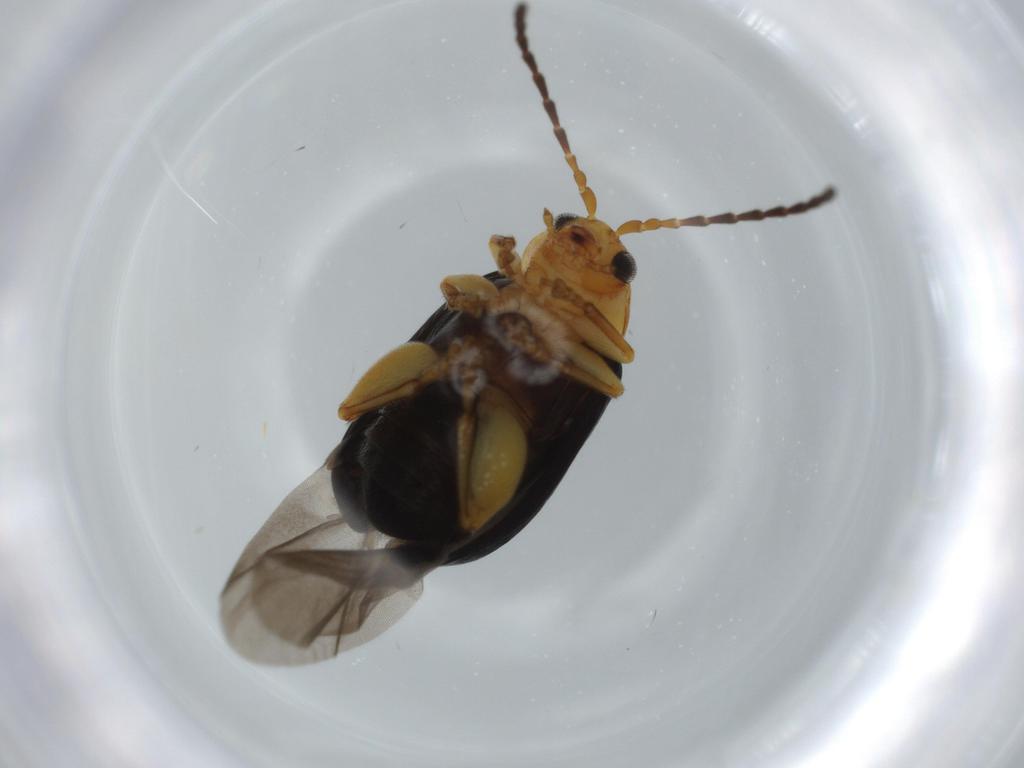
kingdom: Animalia
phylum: Arthropoda
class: Insecta
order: Coleoptera
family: Chrysomelidae
